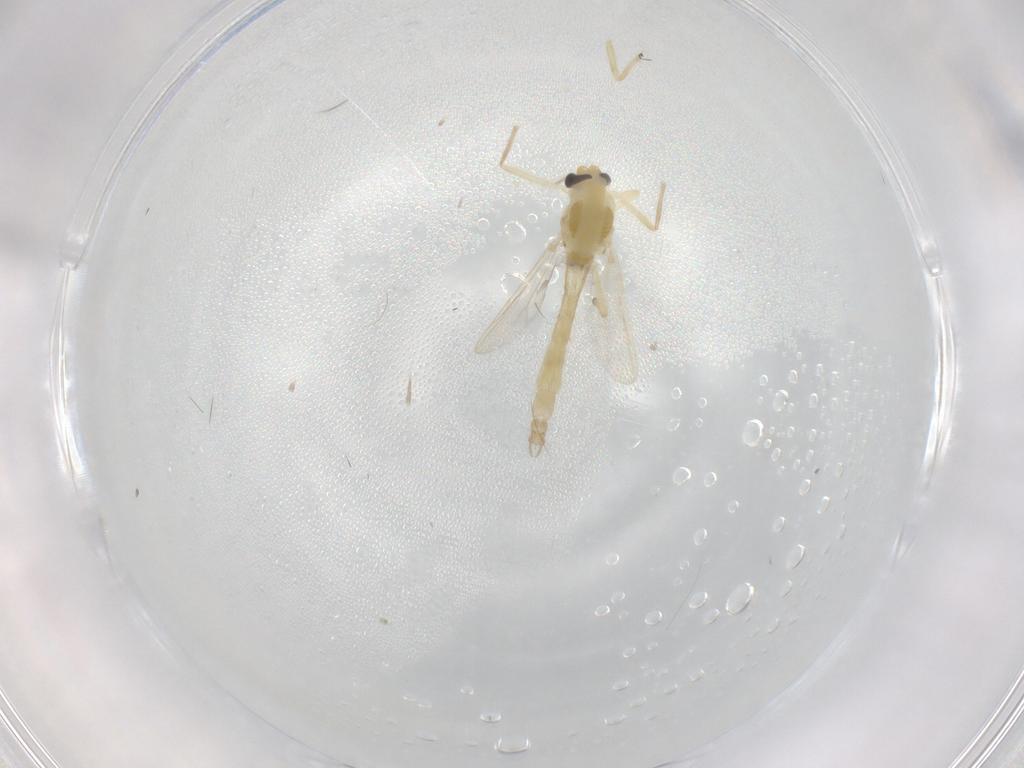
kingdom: Animalia
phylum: Arthropoda
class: Insecta
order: Diptera
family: Chironomidae
